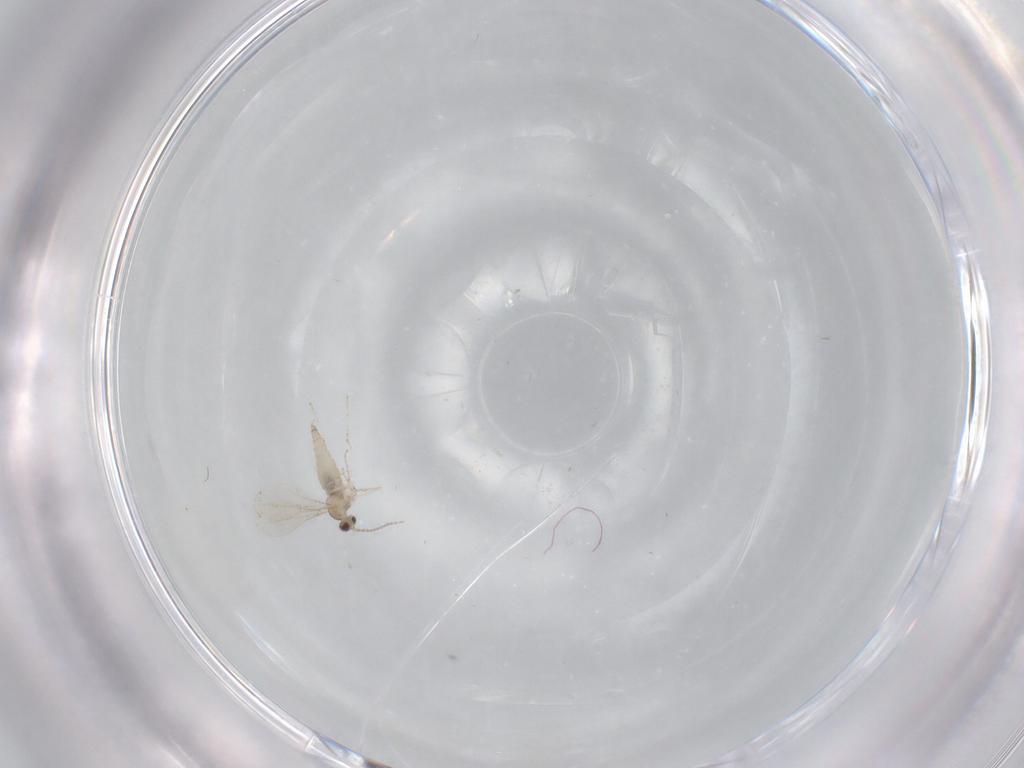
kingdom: Animalia
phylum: Arthropoda
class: Insecta
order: Diptera
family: Cecidomyiidae
